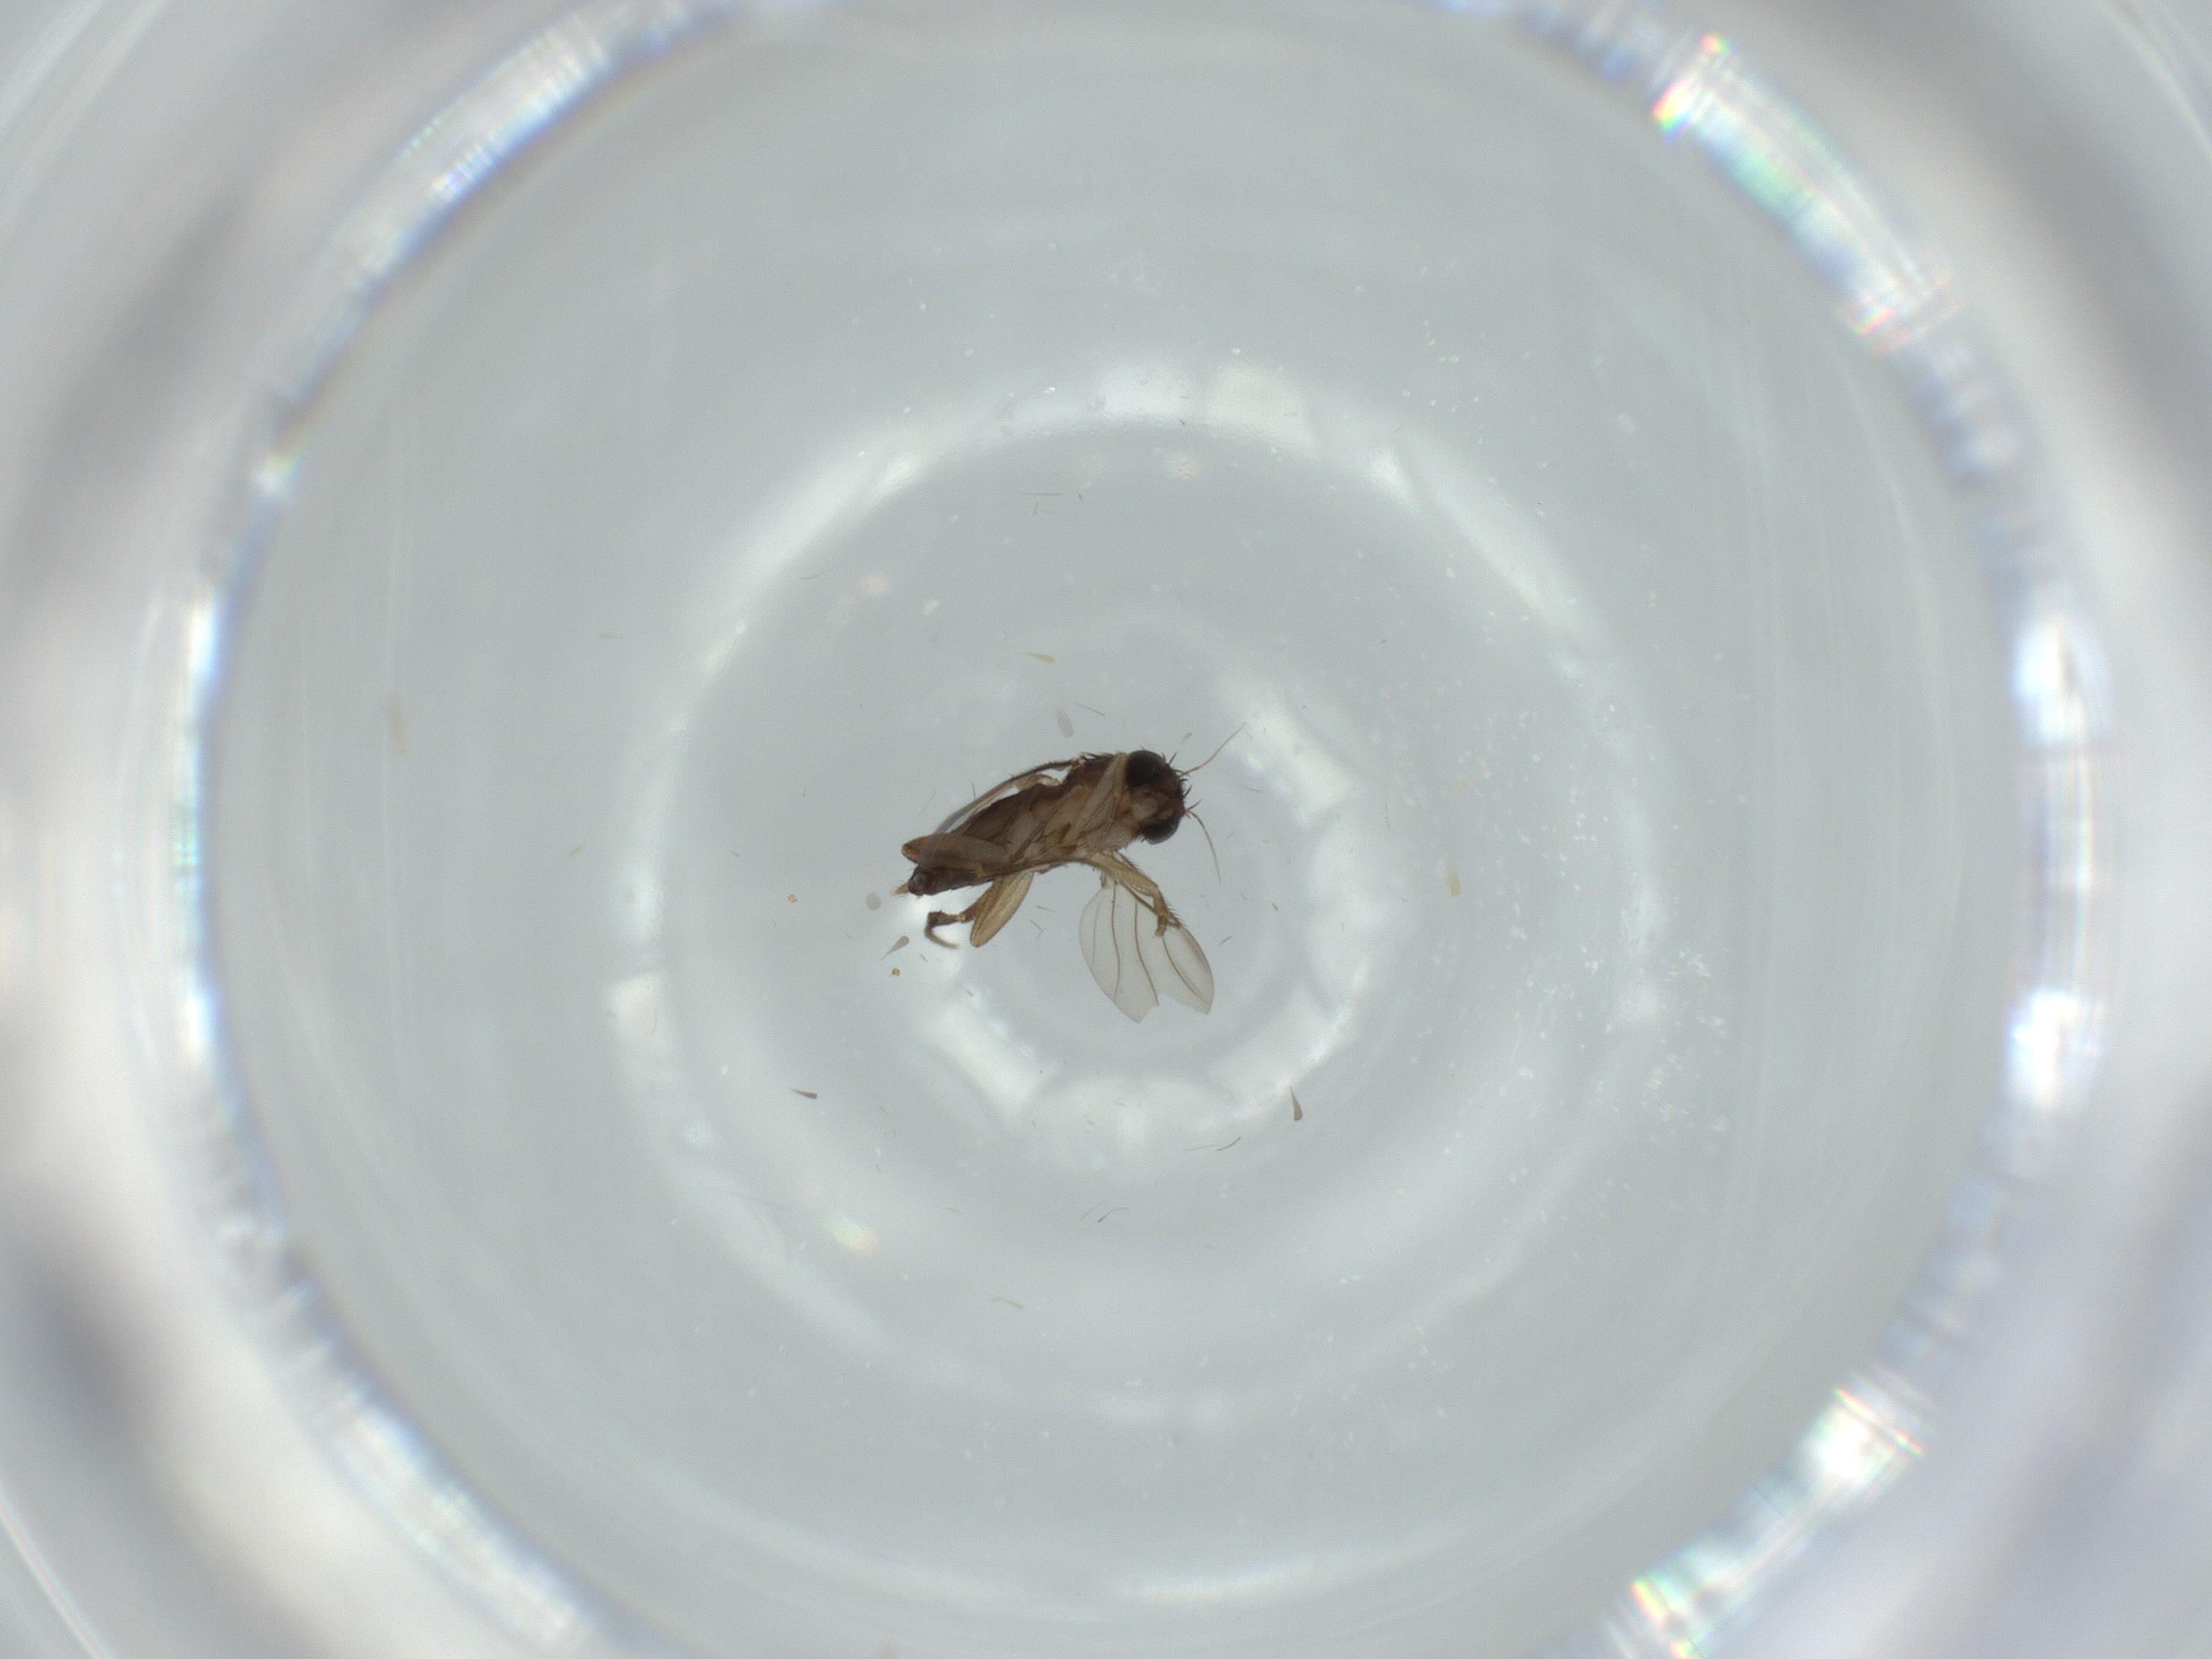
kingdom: Animalia
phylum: Arthropoda
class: Insecta
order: Diptera
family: Phoridae
